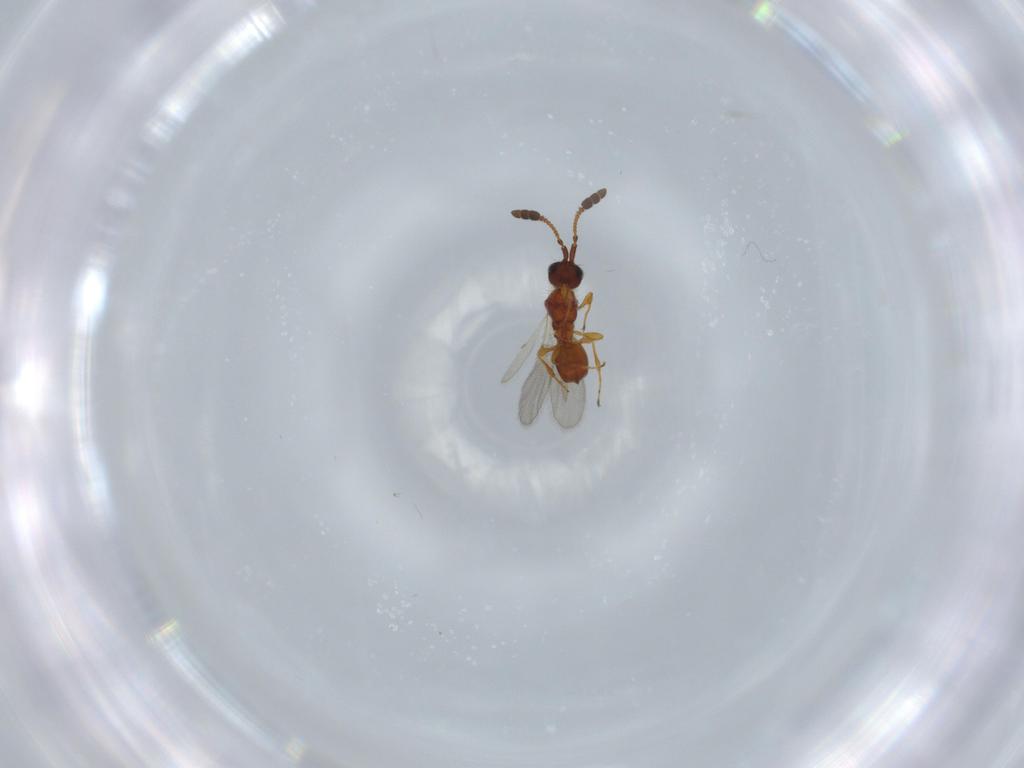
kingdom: Animalia
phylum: Arthropoda
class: Insecta
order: Hymenoptera
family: Diapriidae
